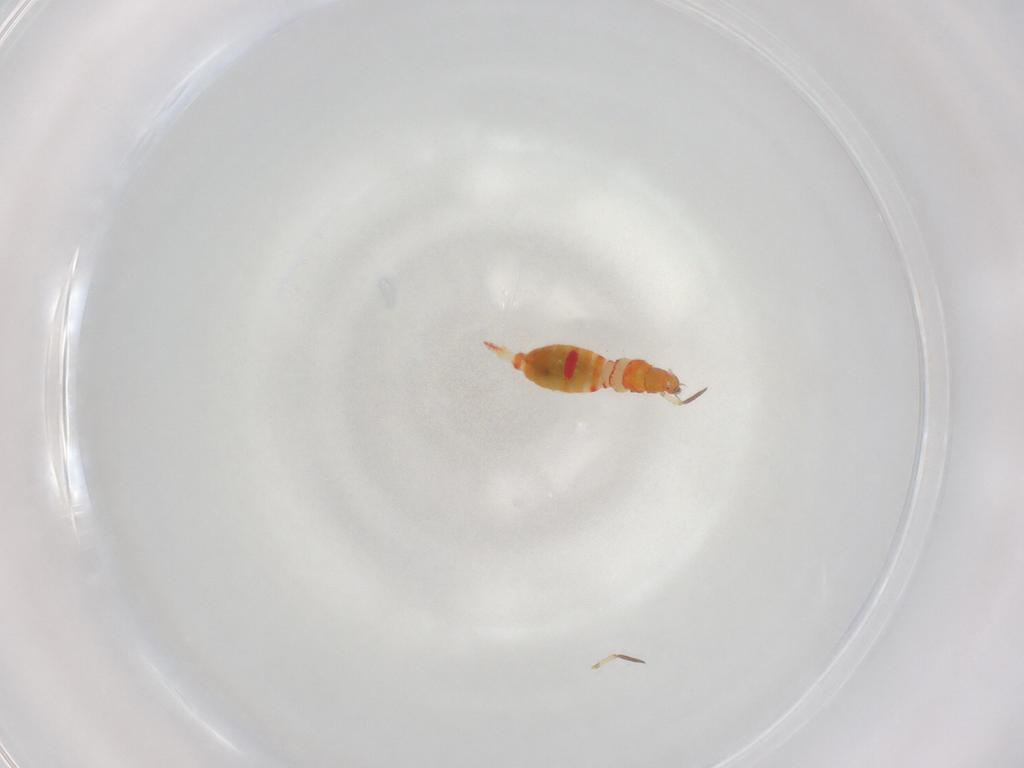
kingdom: Animalia
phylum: Arthropoda
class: Insecta
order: Thysanoptera
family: Aeolothripidae
